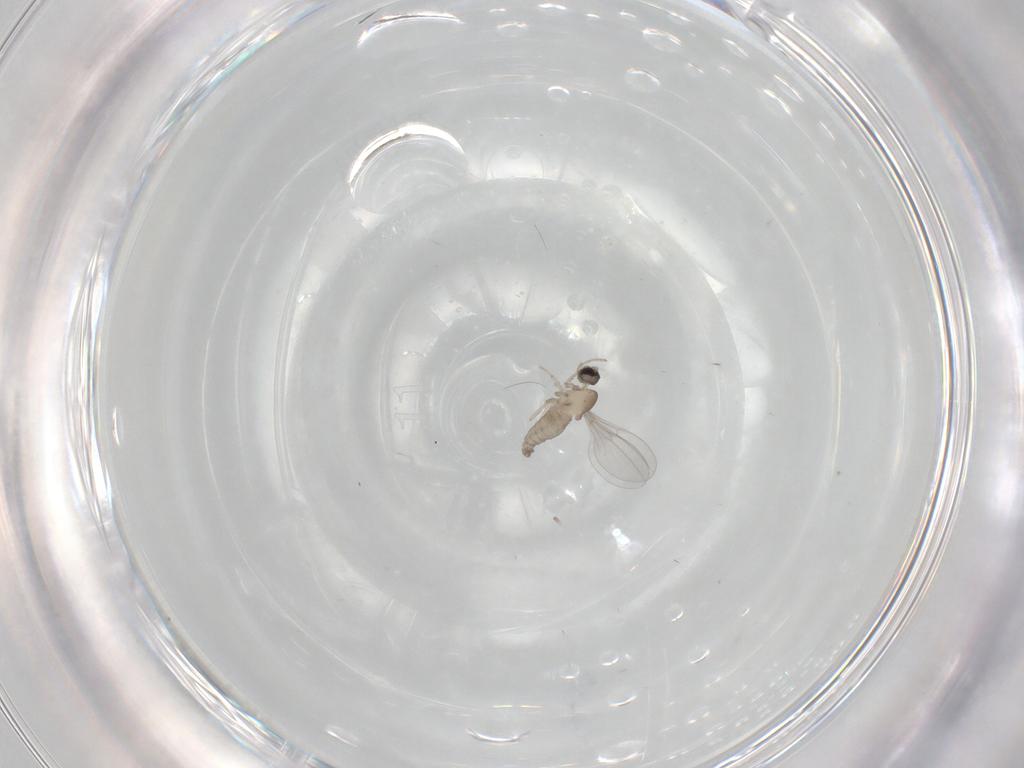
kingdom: Animalia
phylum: Arthropoda
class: Insecta
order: Diptera
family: Cecidomyiidae
